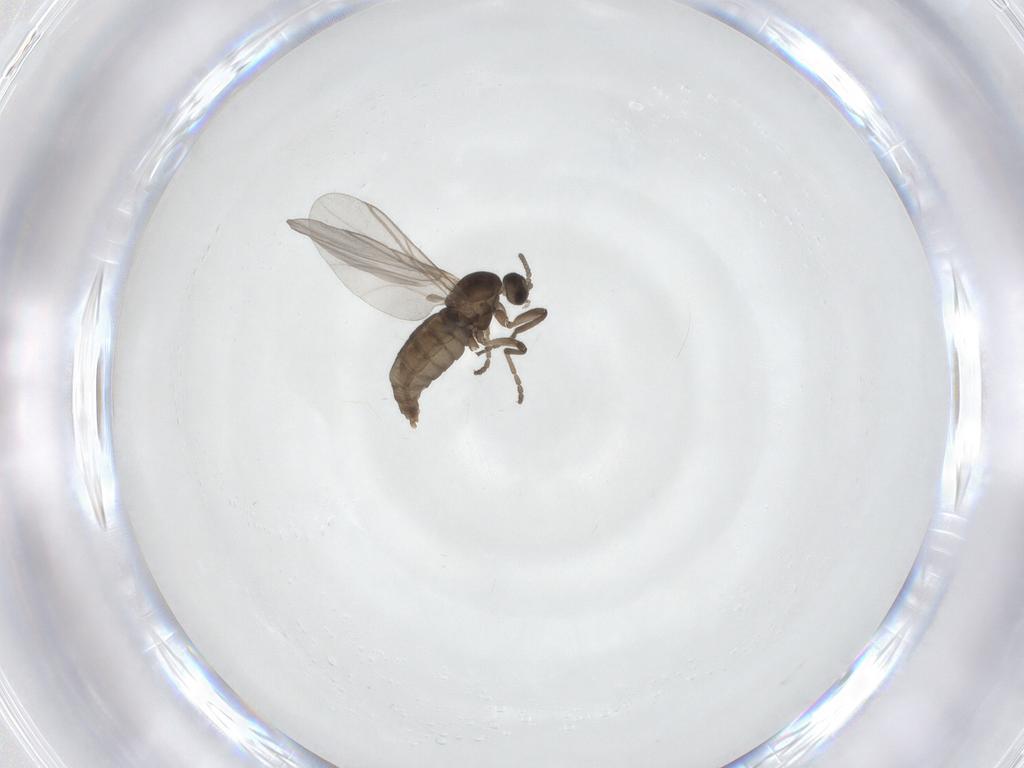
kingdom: Animalia
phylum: Arthropoda
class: Insecta
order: Diptera
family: Cecidomyiidae
